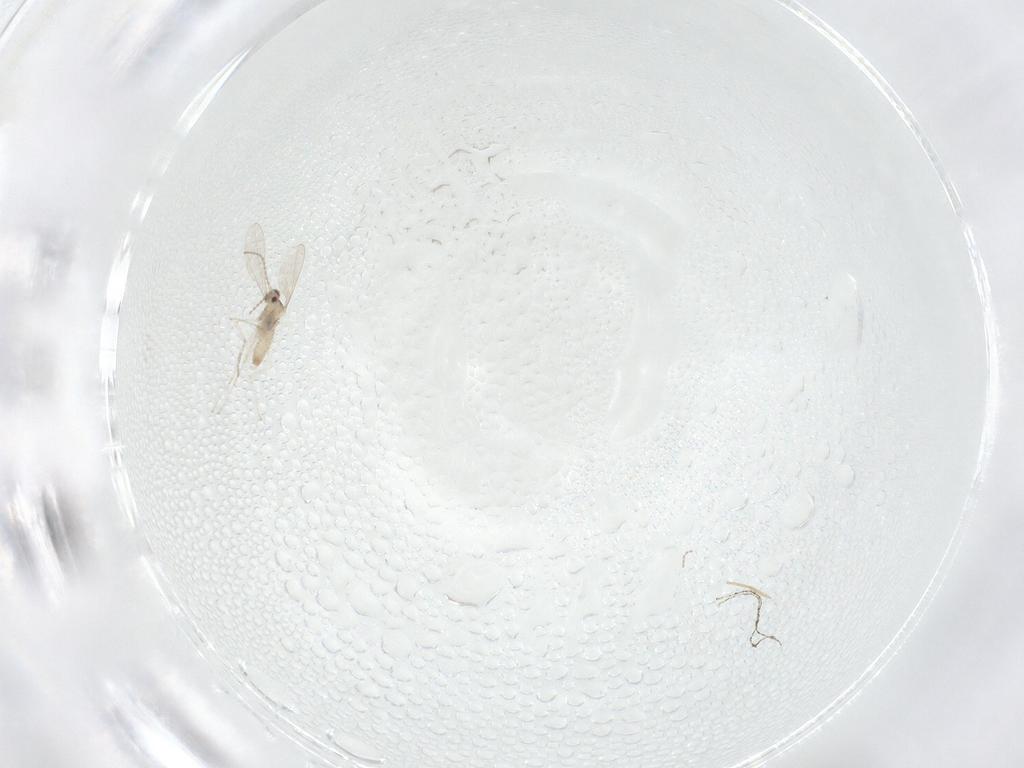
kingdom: Animalia
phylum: Arthropoda
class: Insecta
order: Diptera
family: Chironomidae
